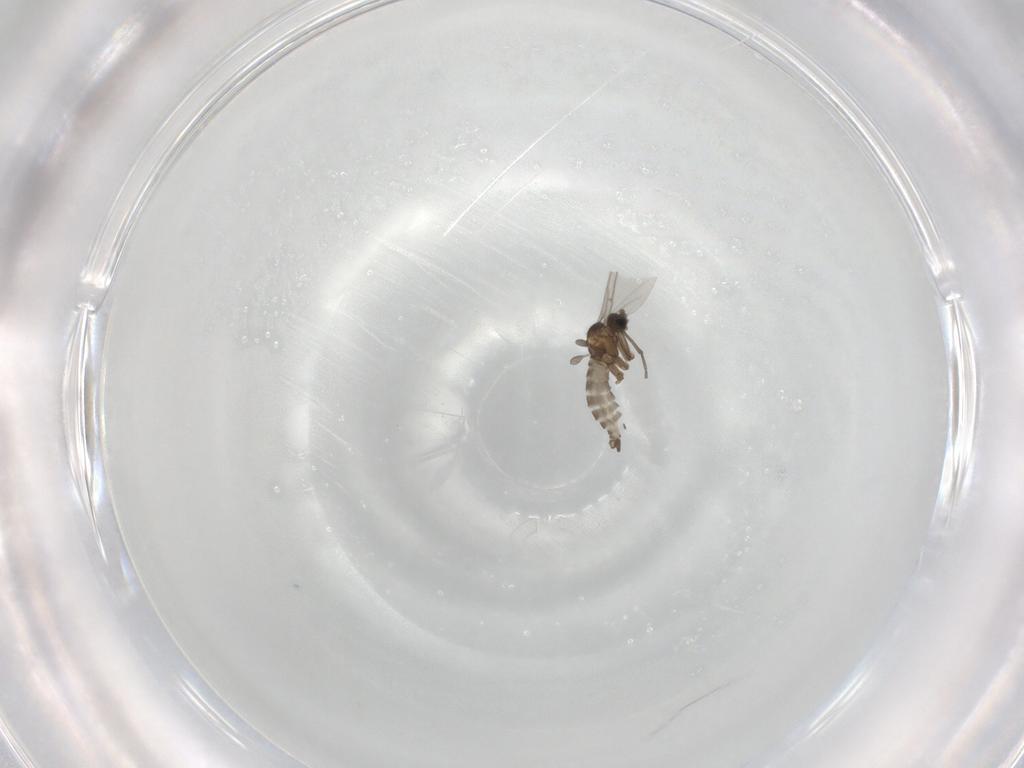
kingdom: Animalia
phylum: Arthropoda
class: Insecta
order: Diptera
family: Sciaridae
